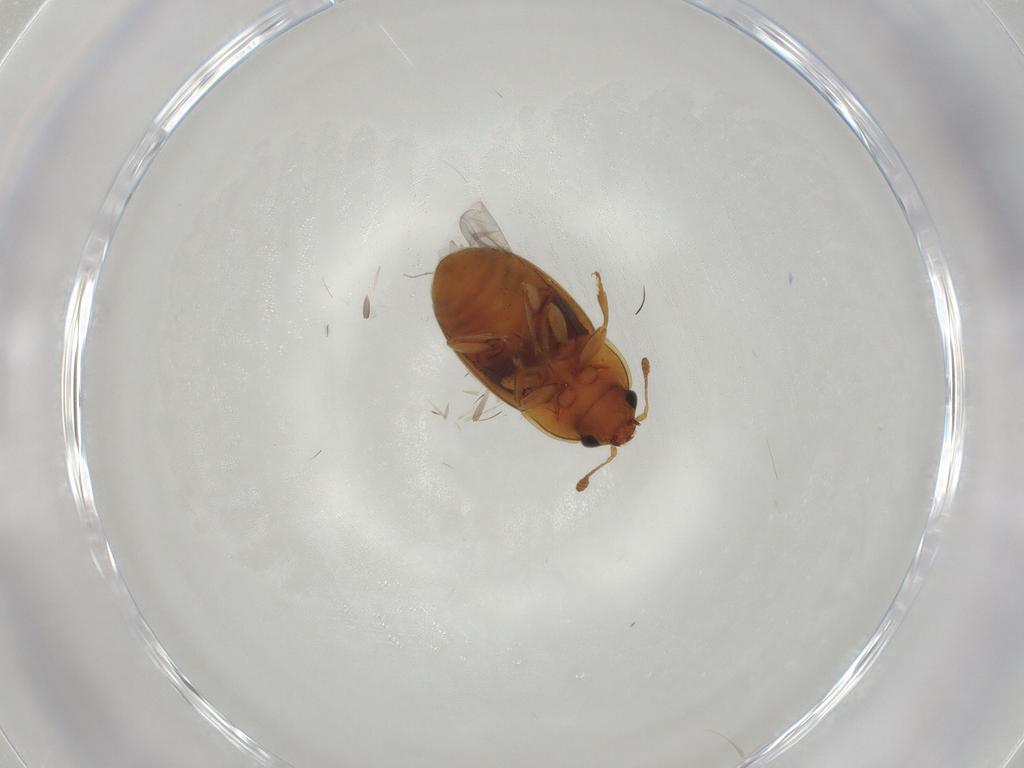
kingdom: Animalia
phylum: Arthropoda
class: Insecta
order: Coleoptera
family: Nitidulidae
